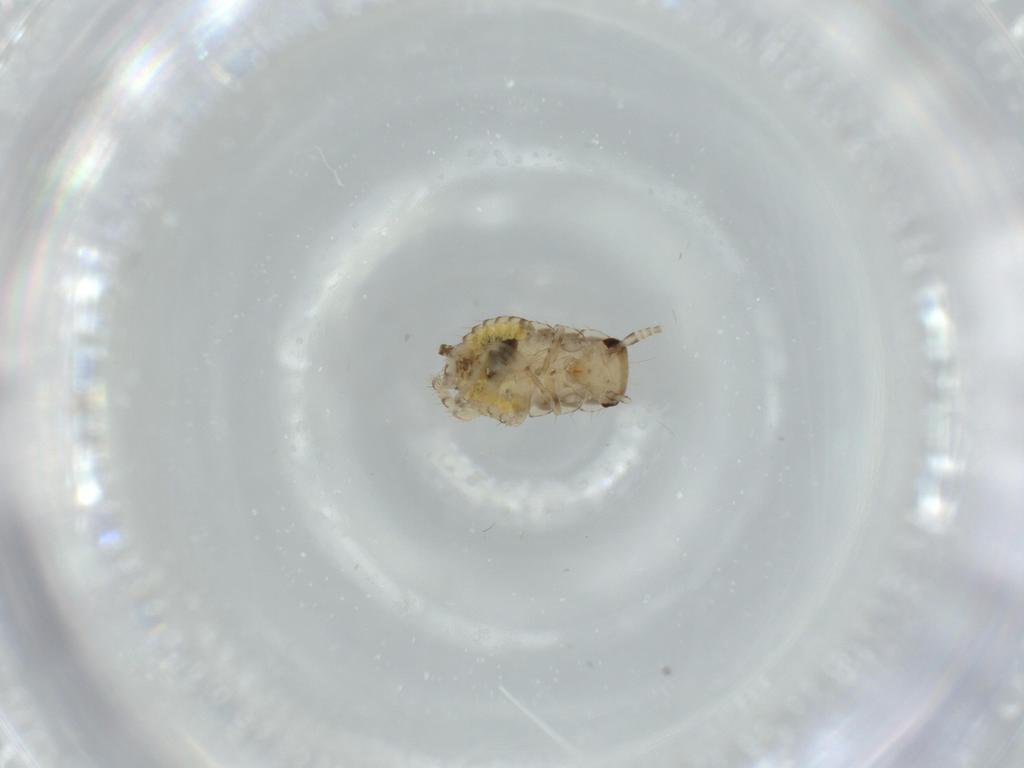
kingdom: Animalia
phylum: Arthropoda
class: Insecta
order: Blattodea
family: Ectobiidae
